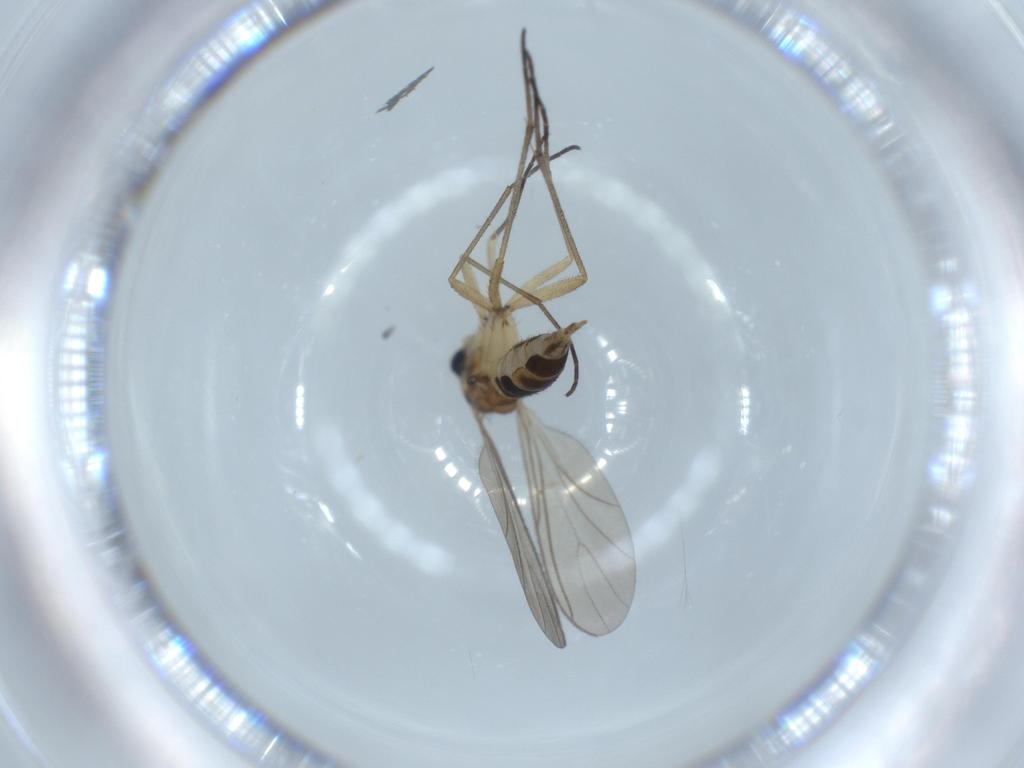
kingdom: Animalia
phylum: Arthropoda
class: Insecta
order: Diptera
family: Sciaridae
